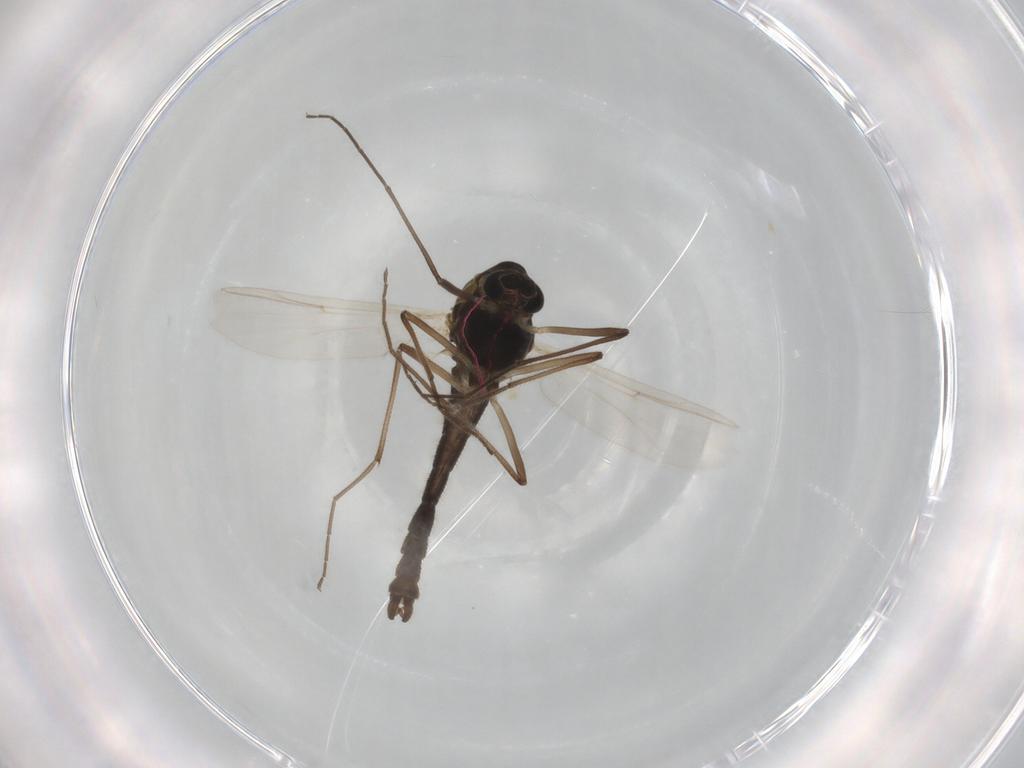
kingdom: Animalia
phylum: Arthropoda
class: Insecta
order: Diptera
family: Chironomidae
